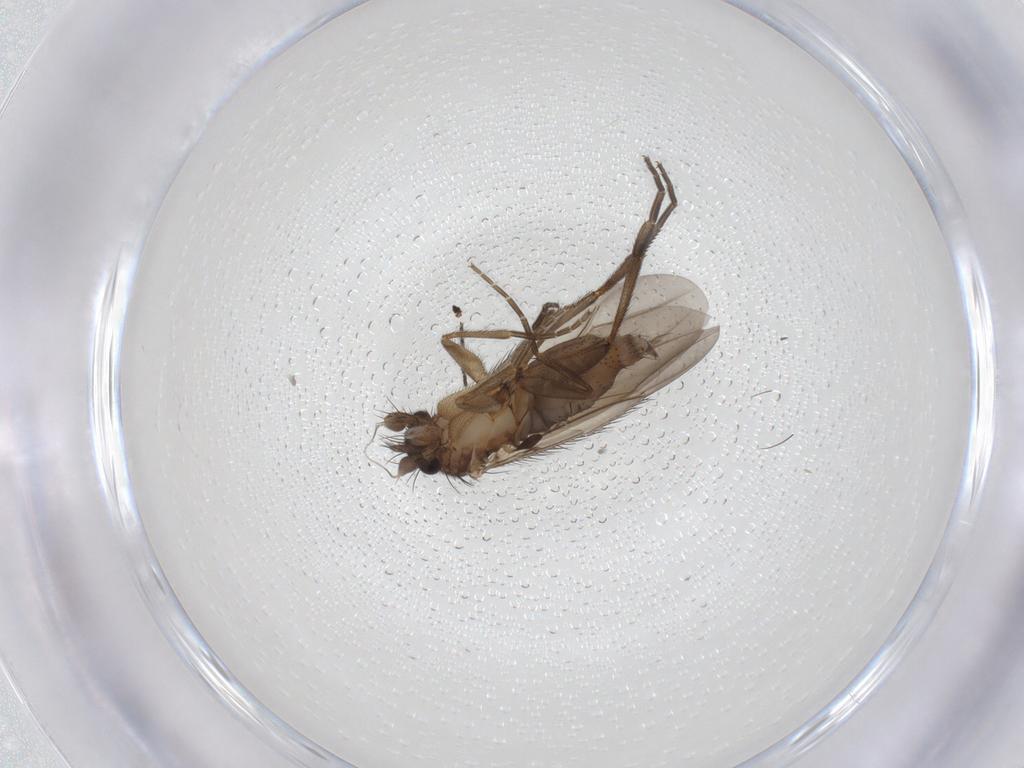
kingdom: Animalia
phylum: Arthropoda
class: Insecta
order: Diptera
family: Phoridae
